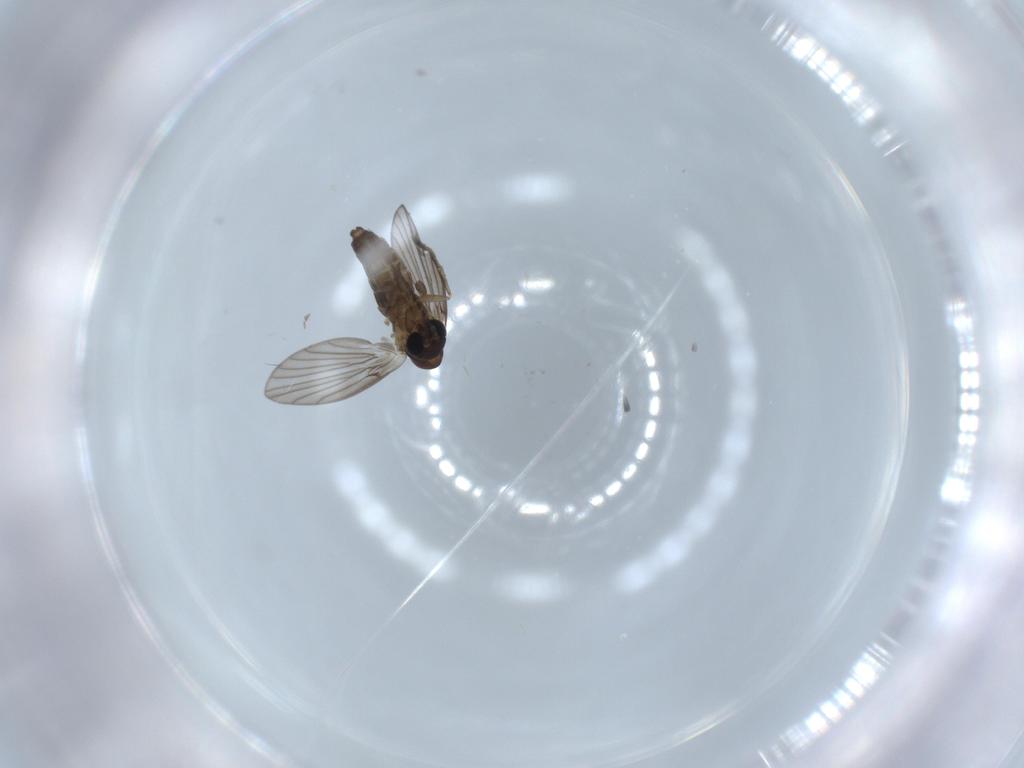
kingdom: Animalia
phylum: Arthropoda
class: Insecta
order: Diptera
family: Psychodidae
